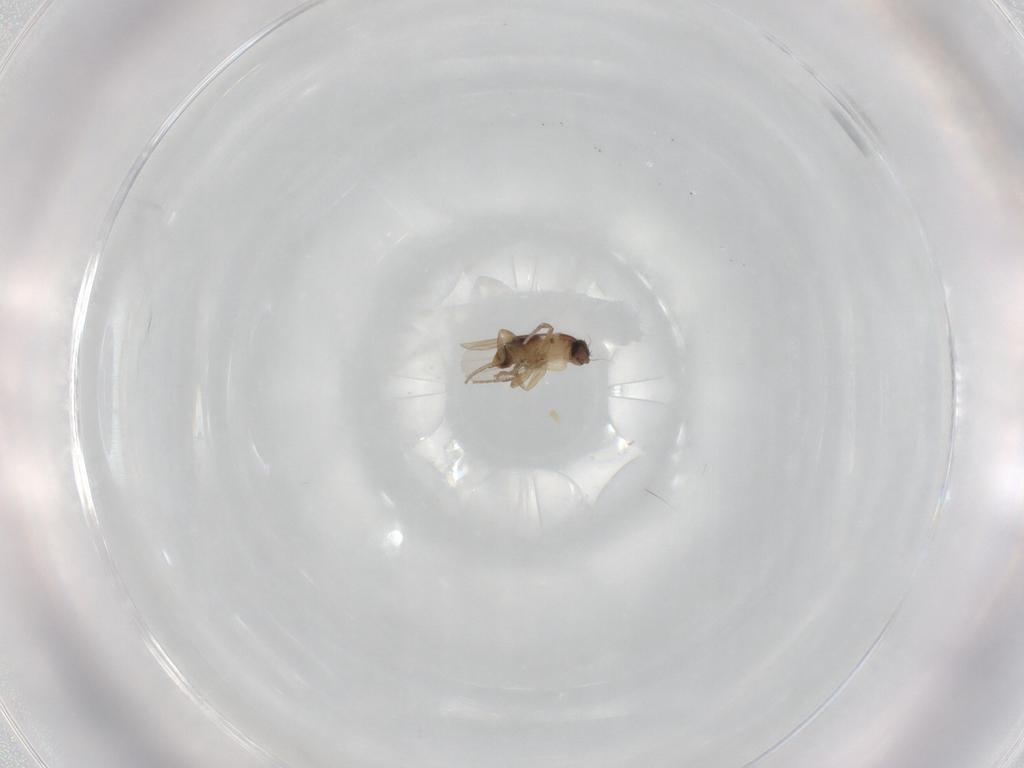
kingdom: Animalia
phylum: Arthropoda
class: Insecta
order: Diptera
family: Phoridae
